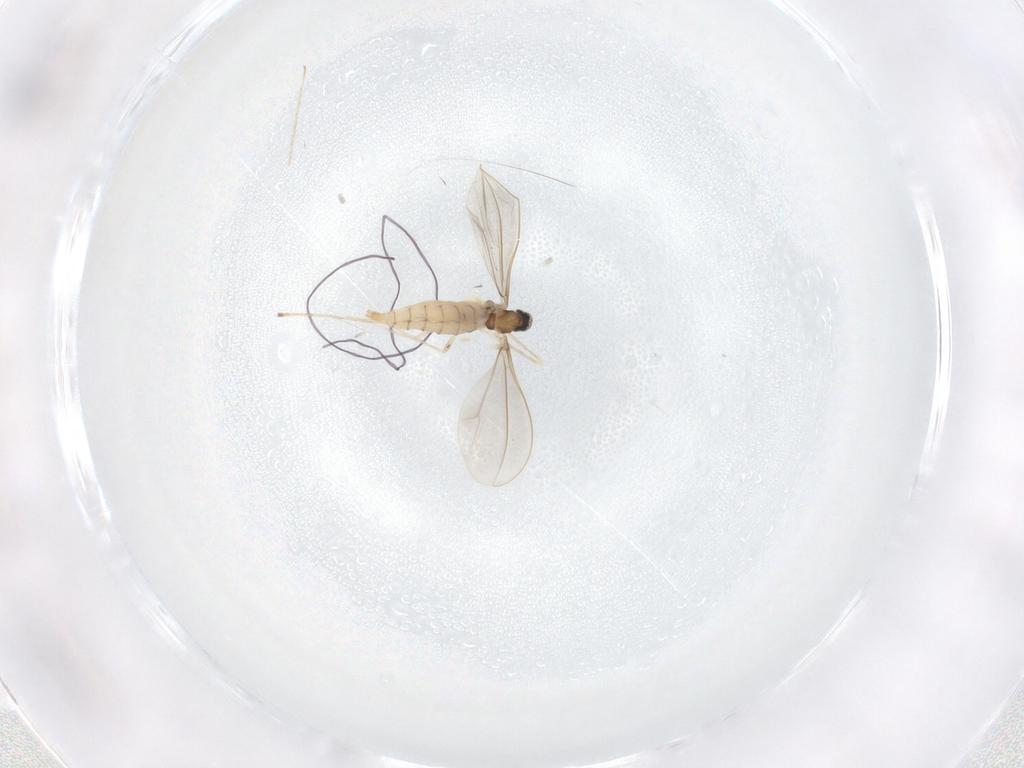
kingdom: Animalia
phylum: Arthropoda
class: Insecta
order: Diptera
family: Cecidomyiidae
